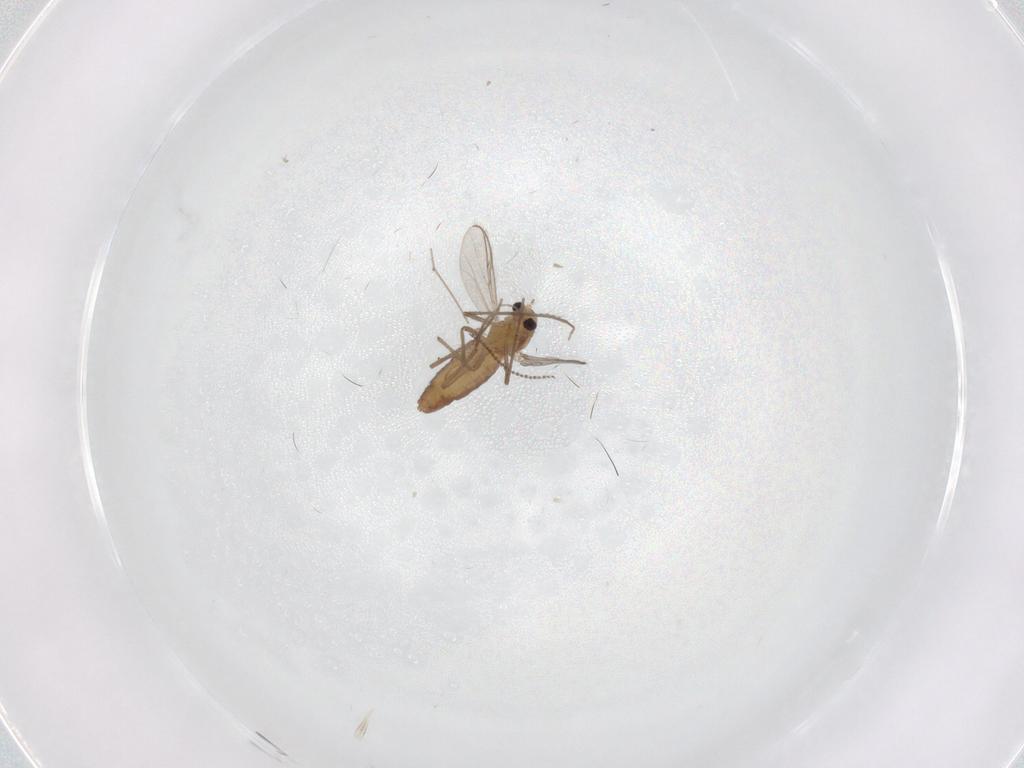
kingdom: Animalia
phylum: Arthropoda
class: Insecta
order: Diptera
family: Chironomidae
